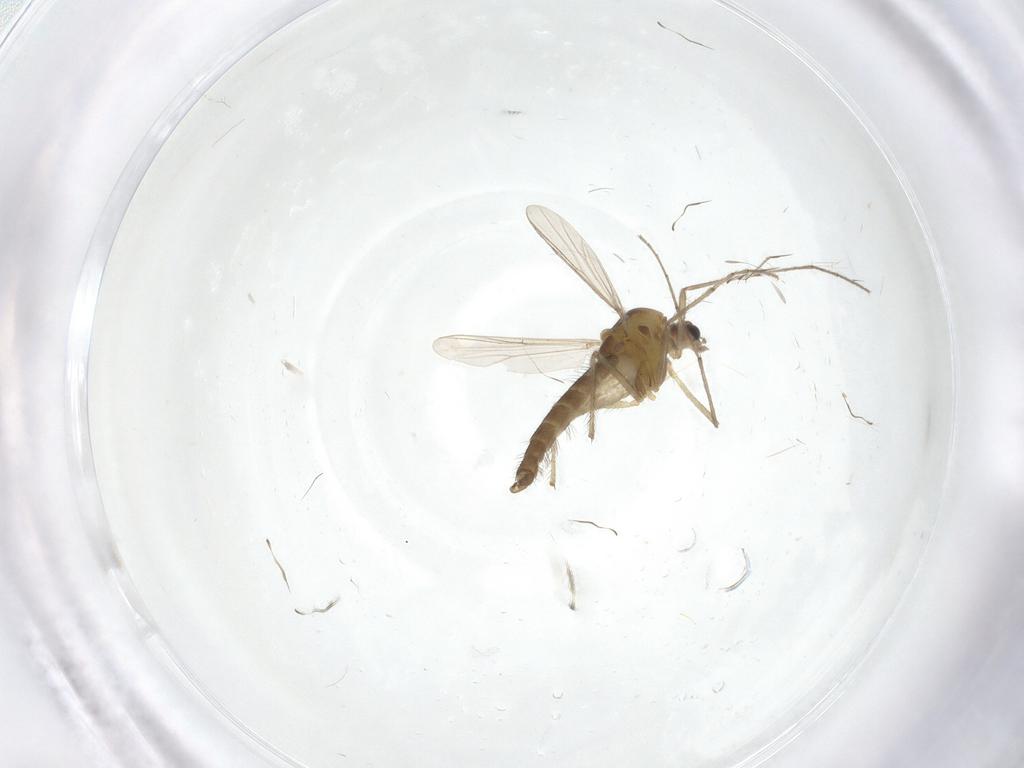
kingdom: Animalia
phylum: Arthropoda
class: Insecta
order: Diptera
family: Chironomidae
